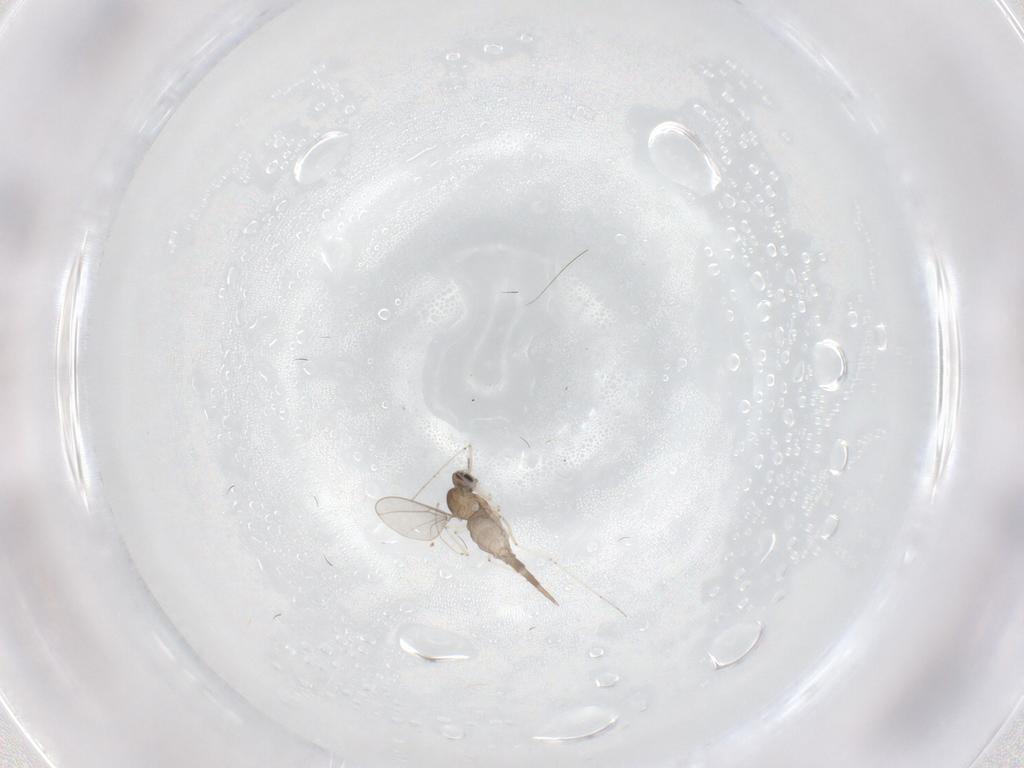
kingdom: Animalia
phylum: Arthropoda
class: Insecta
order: Diptera
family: Cecidomyiidae
